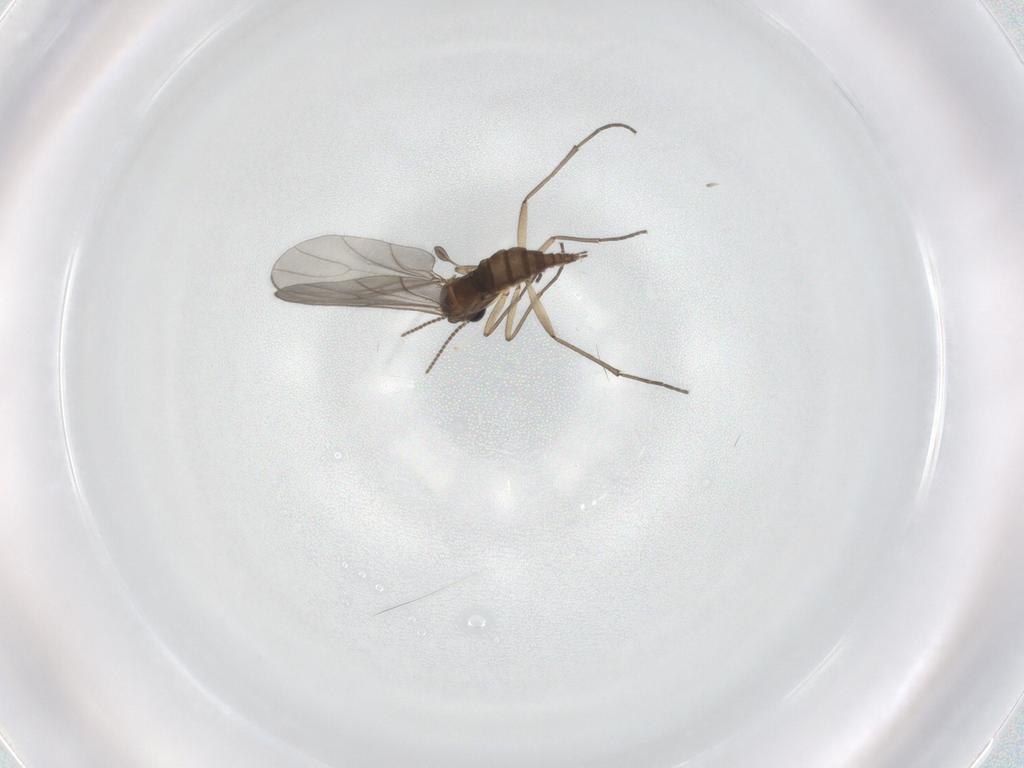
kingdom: Animalia
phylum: Arthropoda
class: Insecta
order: Diptera
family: Sciaridae
